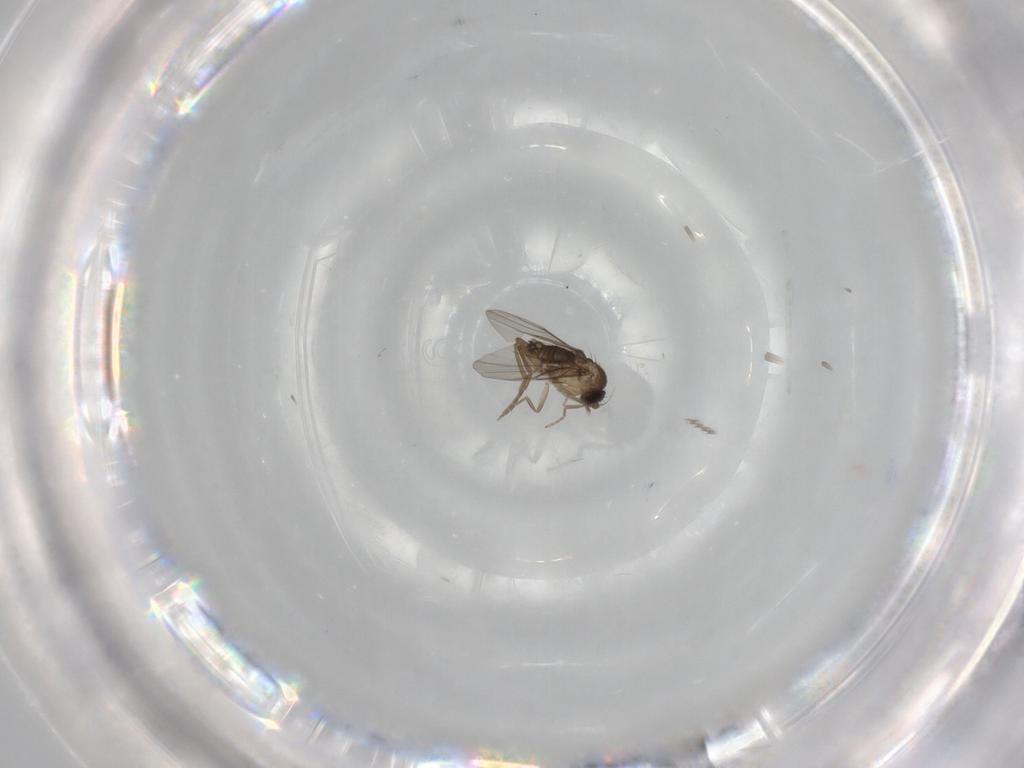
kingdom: Animalia
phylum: Arthropoda
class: Insecta
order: Diptera
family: Phoridae
